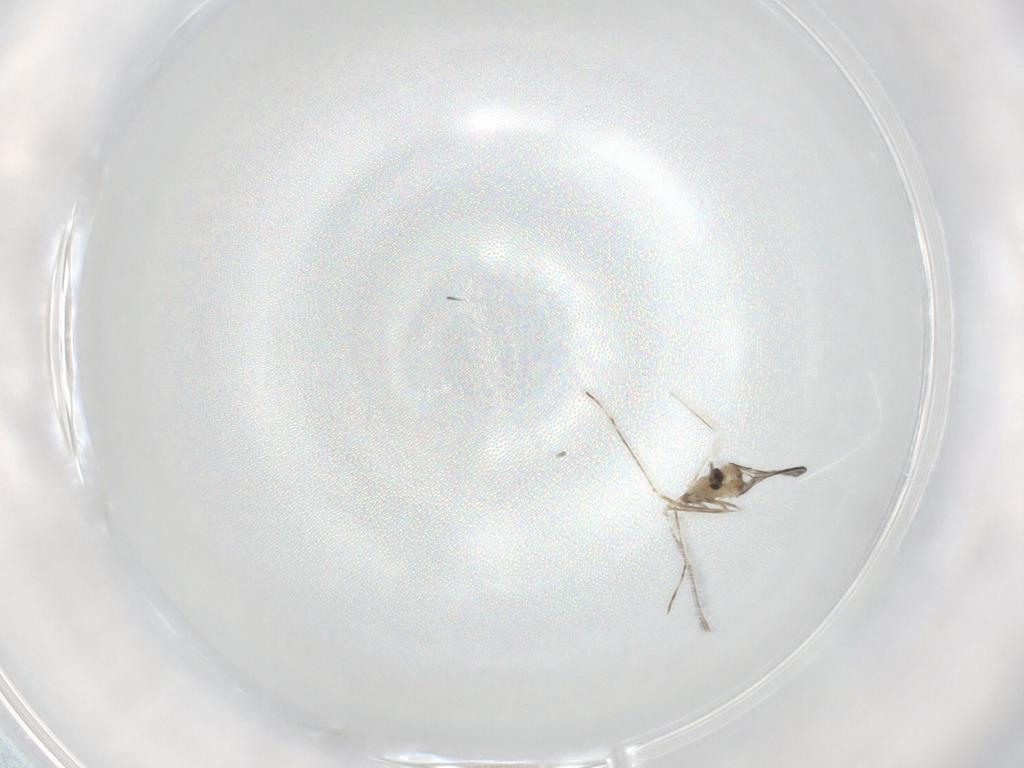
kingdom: Animalia
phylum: Arthropoda
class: Insecta
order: Diptera
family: Cecidomyiidae
